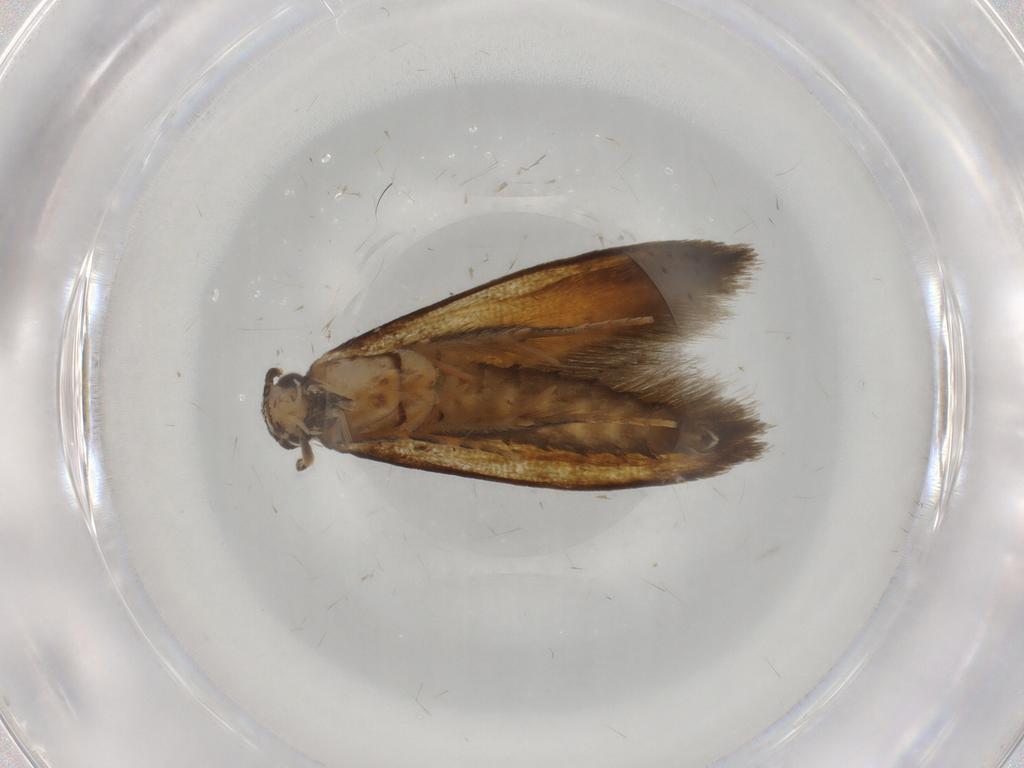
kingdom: Animalia
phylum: Arthropoda
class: Insecta
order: Lepidoptera
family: Tineidae
